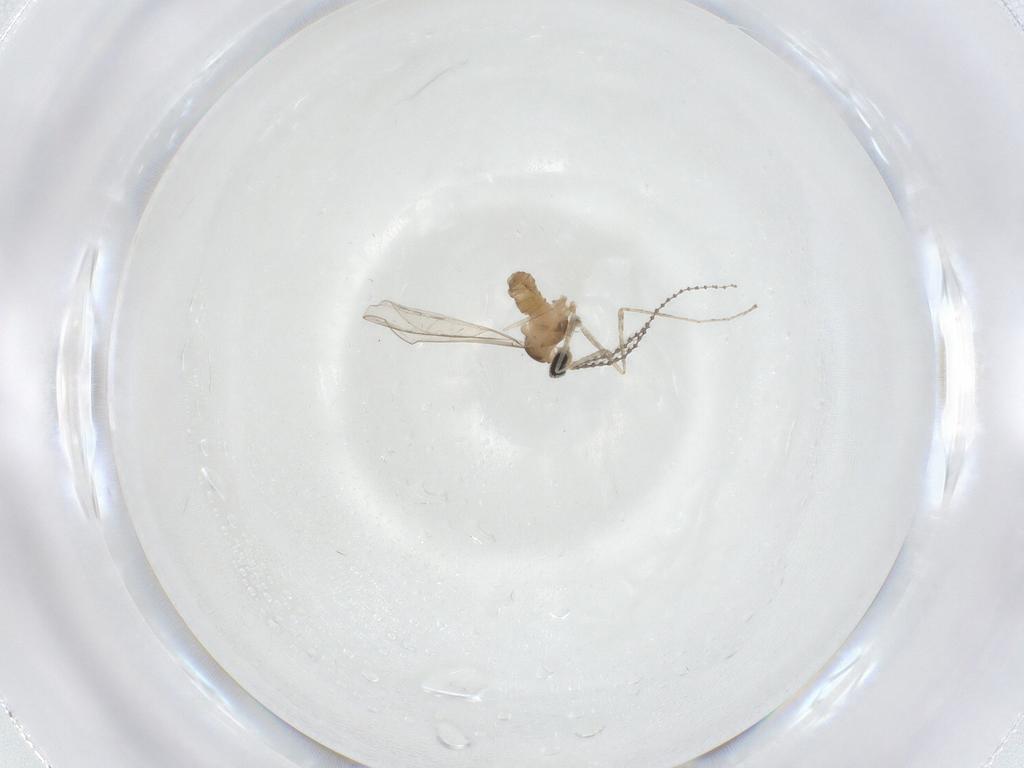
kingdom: Animalia
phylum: Arthropoda
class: Insecta
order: Diptera
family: Cecidomyiidae
